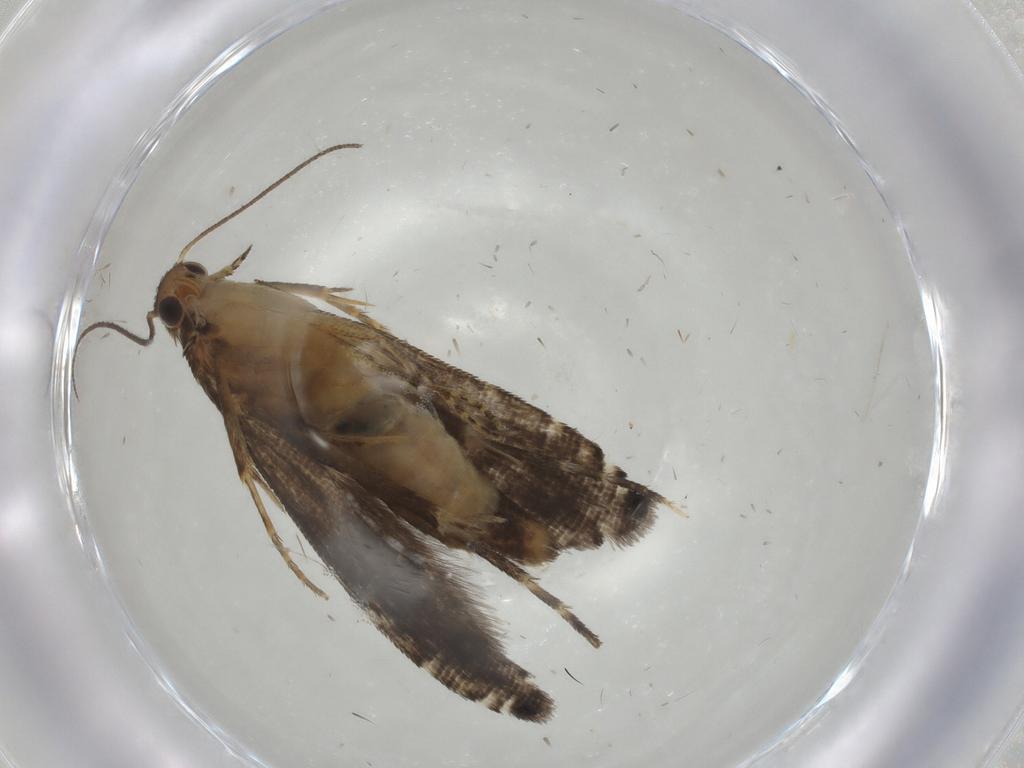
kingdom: Animalia
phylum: Arthropoda
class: Insecta
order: Lepidoptera
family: Glyphipterigidae
